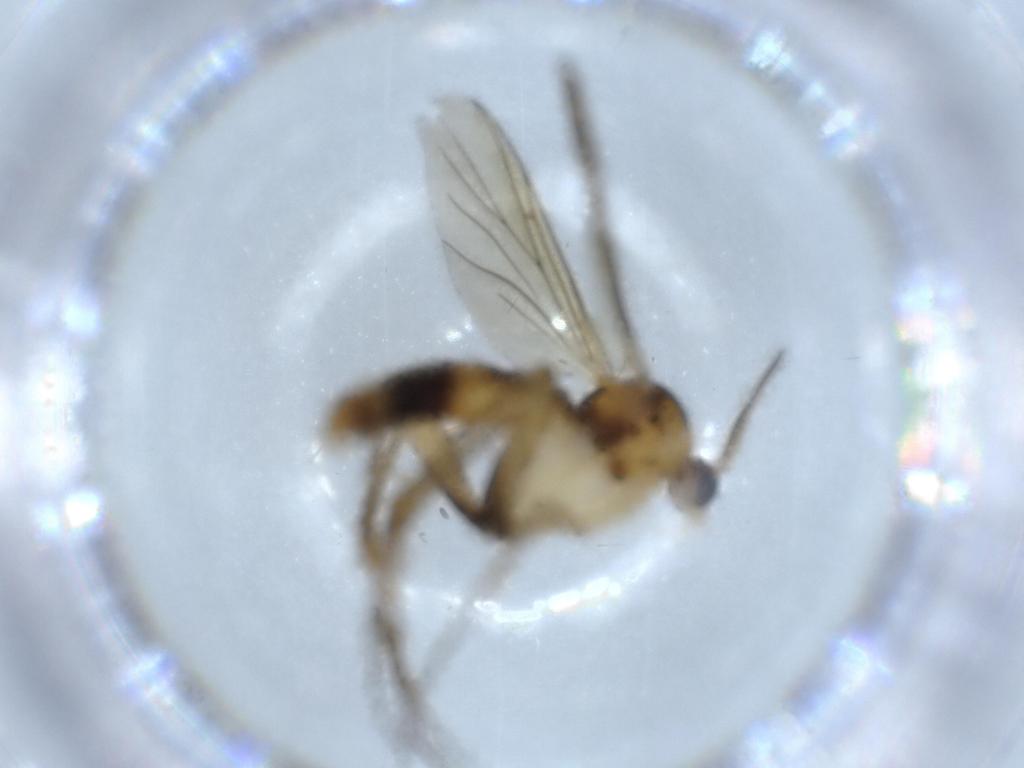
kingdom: Animalia
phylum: Arthropoda
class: Insecta
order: Diptera
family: Mycetophilidae
